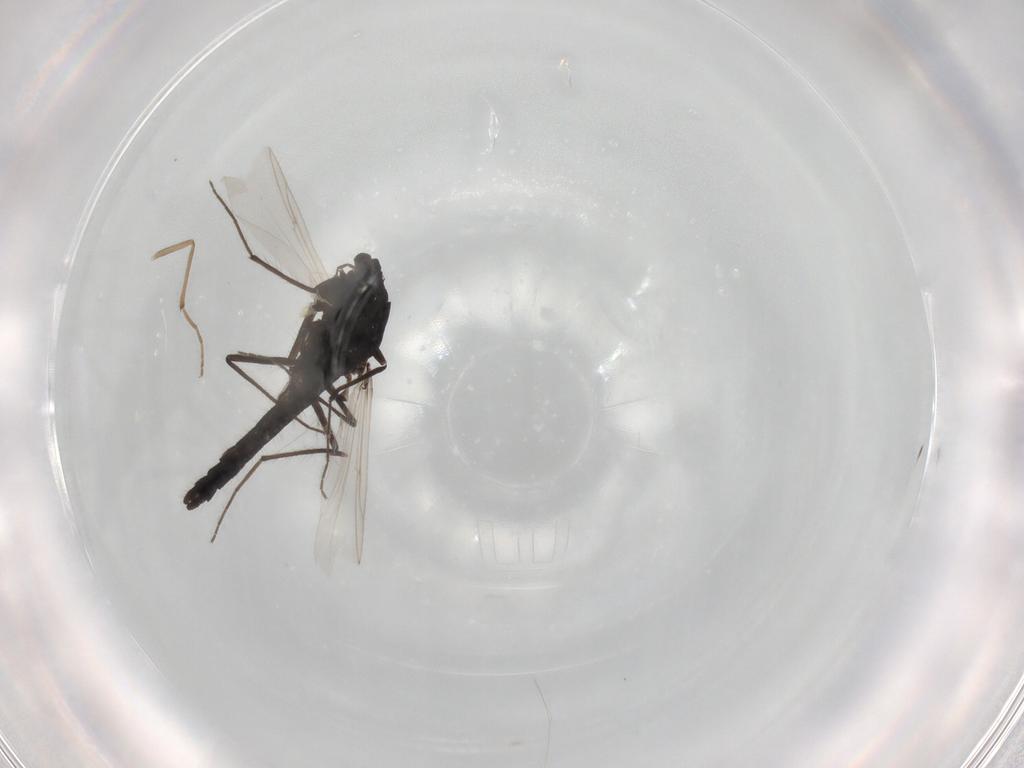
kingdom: Animalia
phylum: Arthropoda
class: Insecta
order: Diptera
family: Chironomidae
